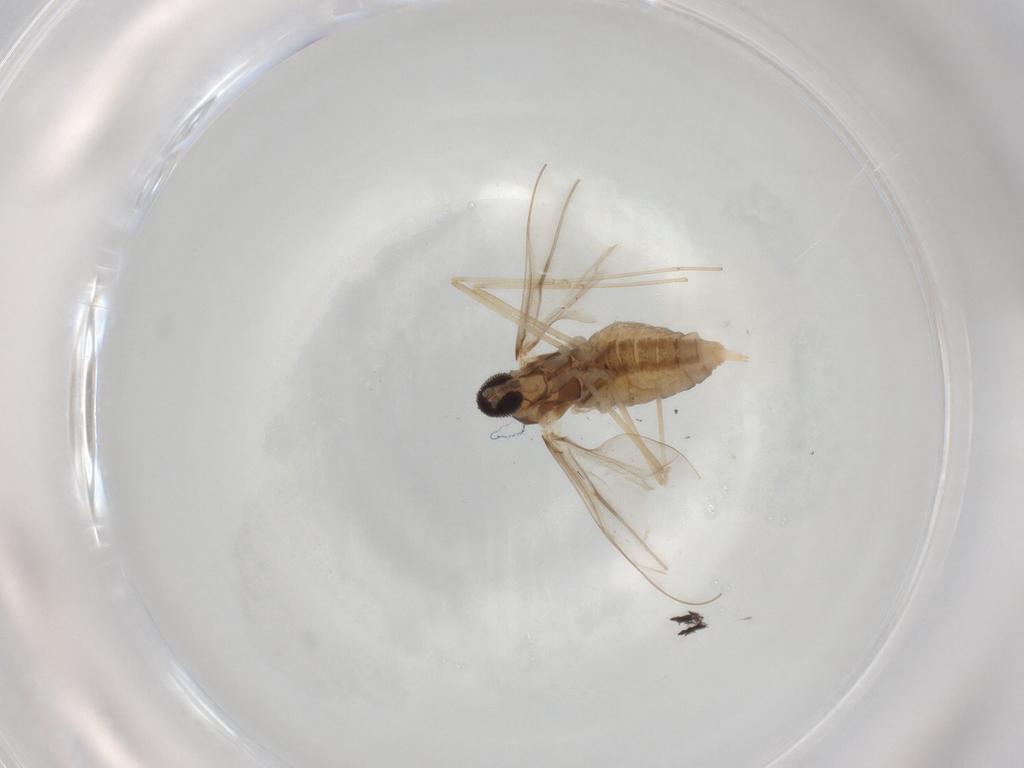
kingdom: Animalia
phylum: Arthropoda
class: Insecta
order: Diptera
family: Cecidomyiidae
